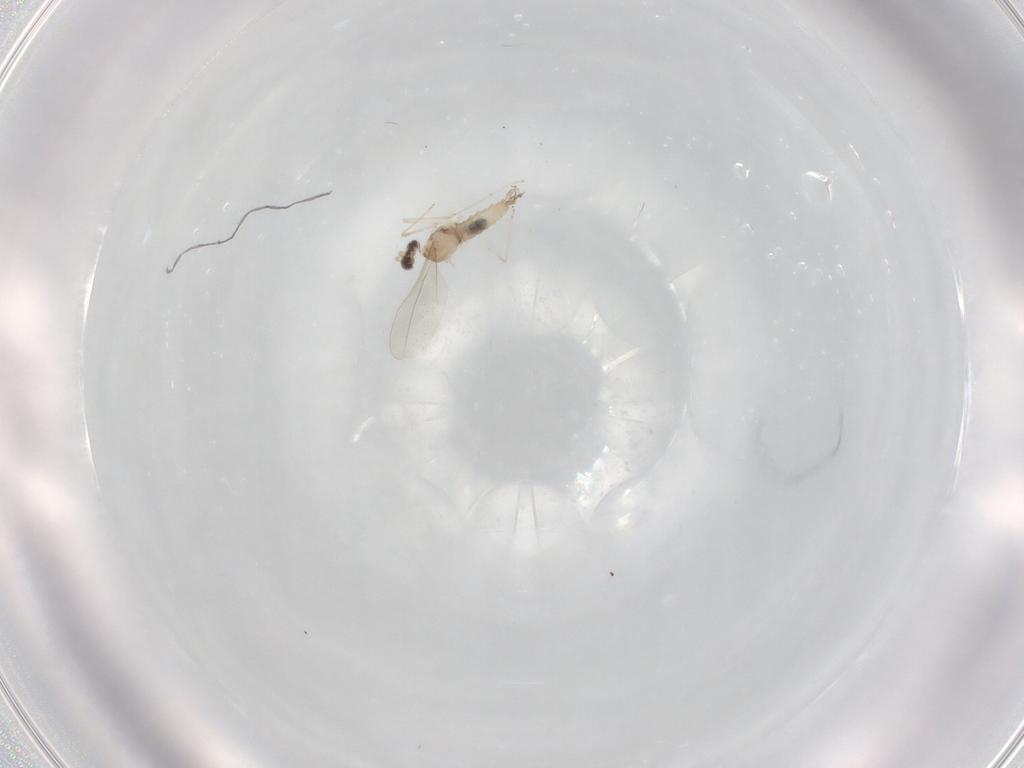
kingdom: Animalia
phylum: Arthropoda
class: Insecta
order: Diptera
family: Cecidomyiidae
